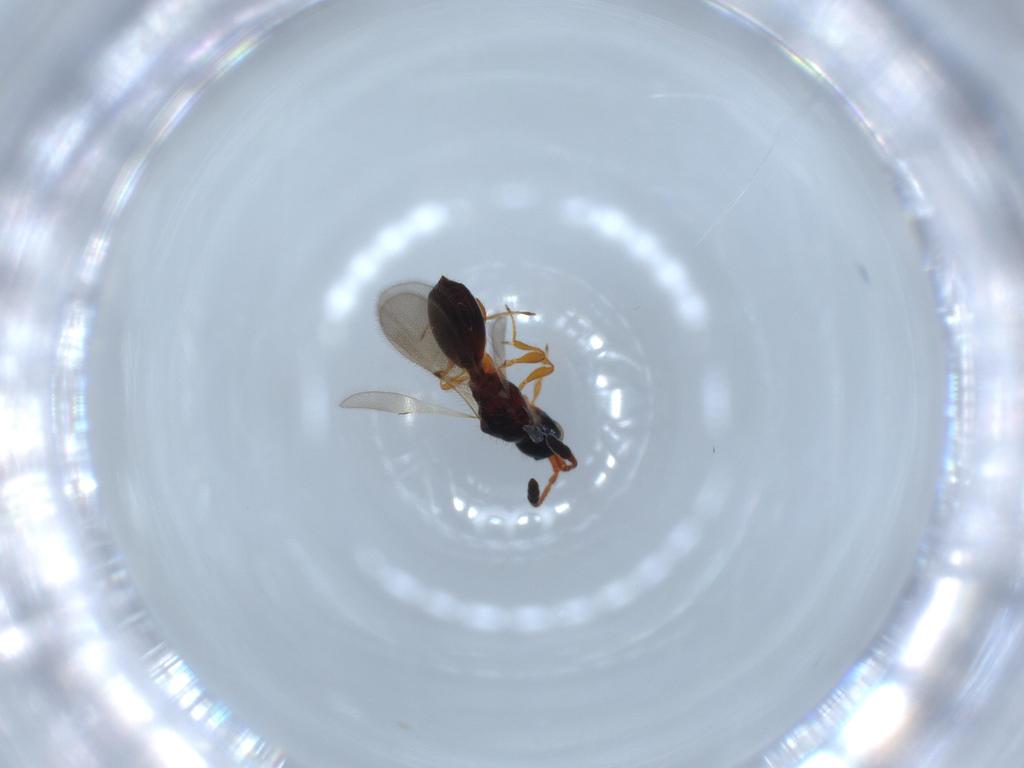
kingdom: Animalia
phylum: Arthropoda
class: Insecta
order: Hymenoptera
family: Diapriidae
